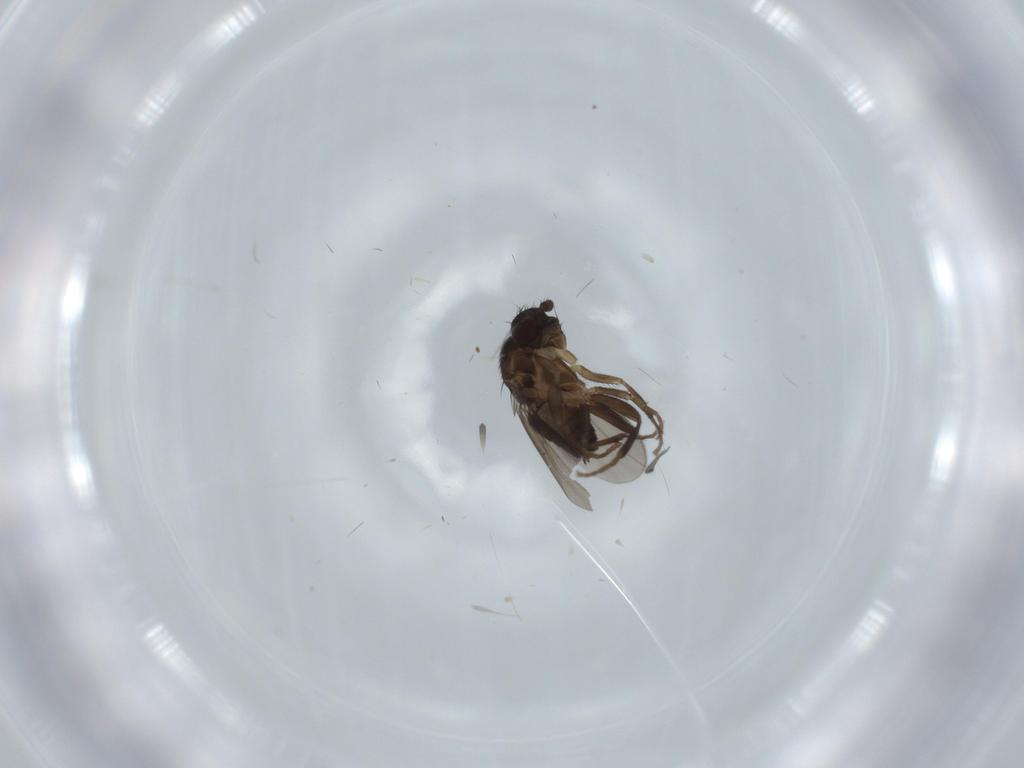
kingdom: Animalia
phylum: Arthropoda
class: Insecta
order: Diptera
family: Sphaeroceridae
